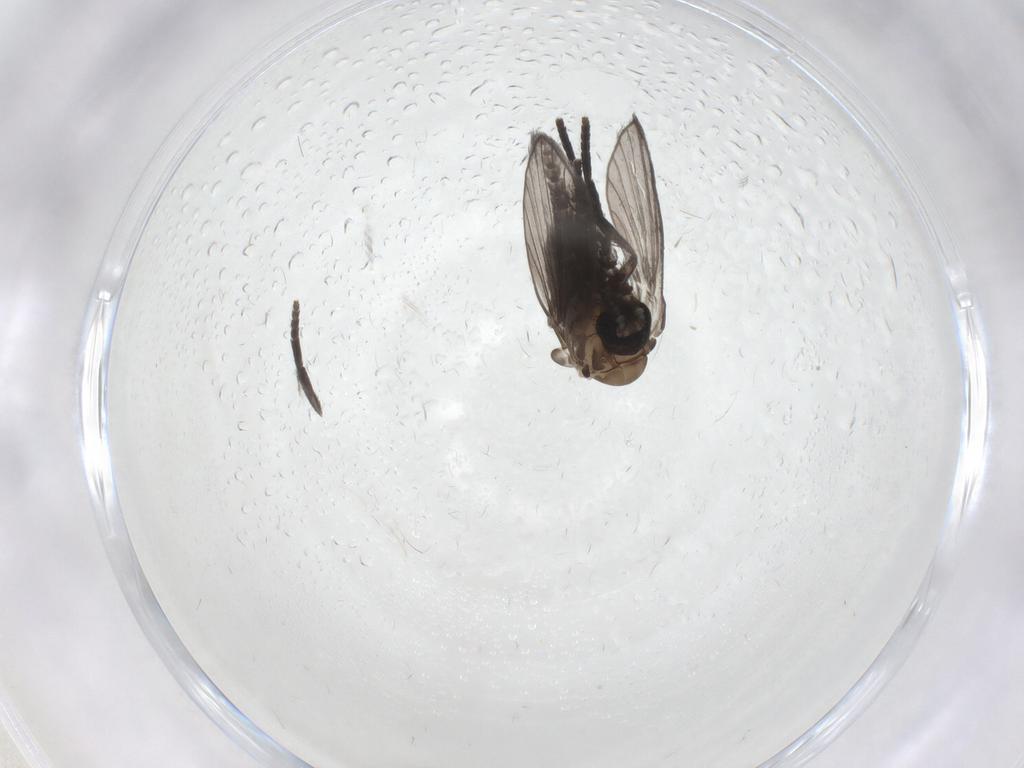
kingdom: Animalia
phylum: Arthropoda
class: Insecta
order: Diptera
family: Psychodidae
